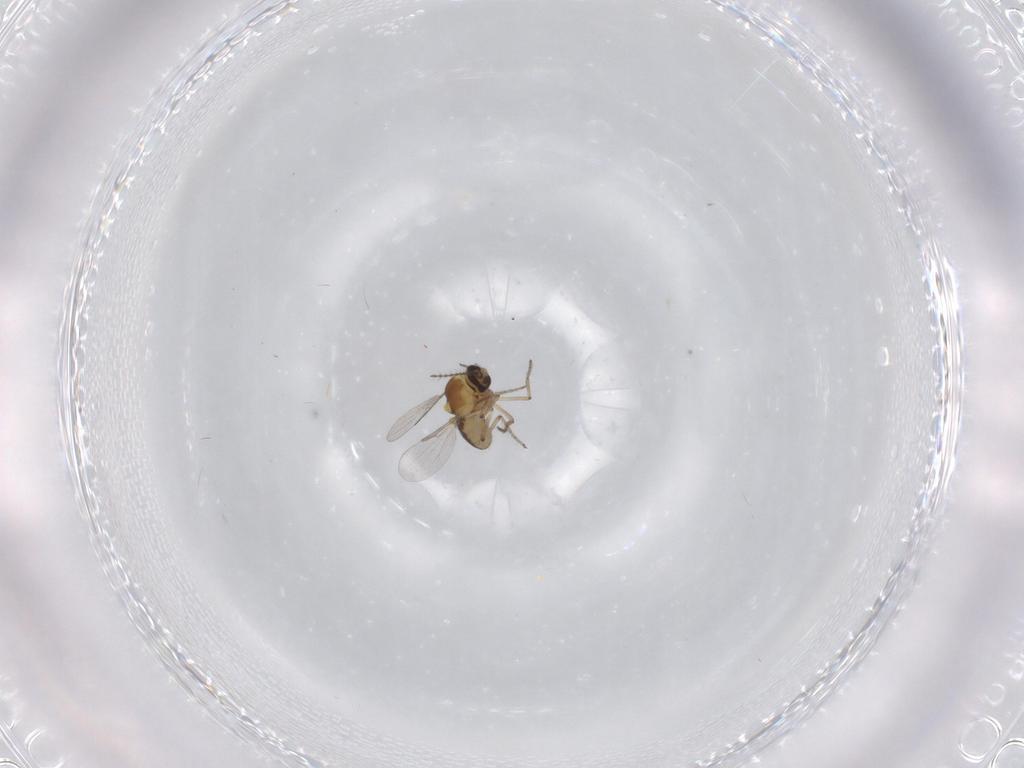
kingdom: Animalia
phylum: Arthropoda
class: Insecta
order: Diptera
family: Ceratopogonidae
